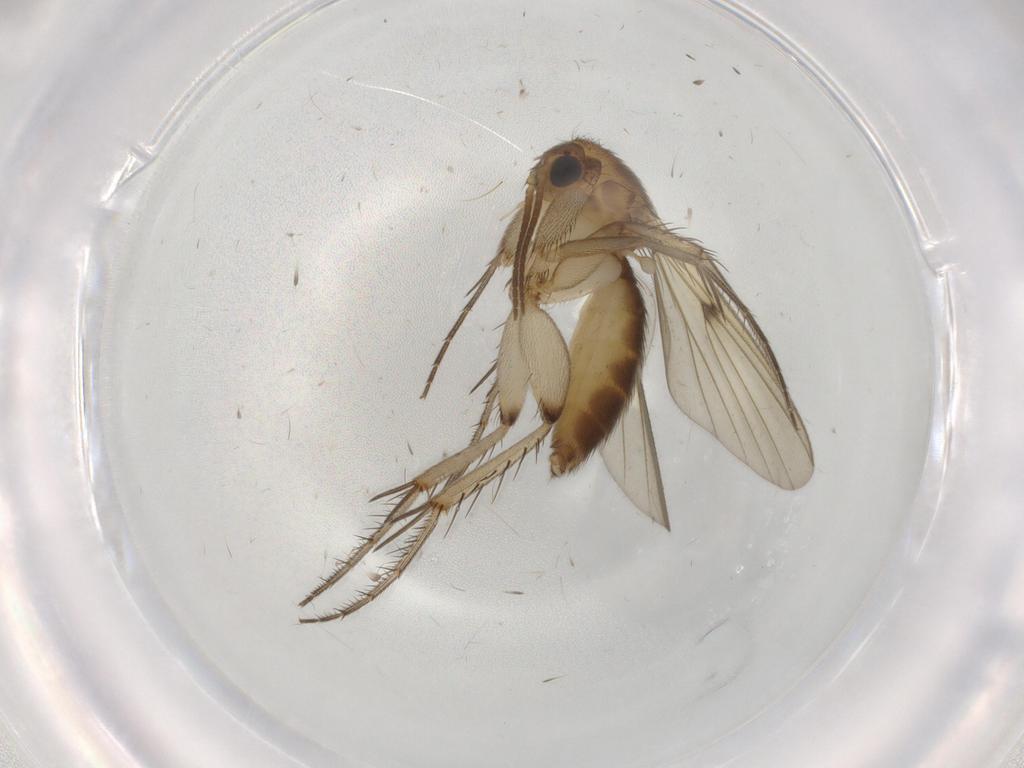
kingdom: Animalia
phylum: Arthropoda
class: Insecta
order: Diptera
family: Mycetophilidae
